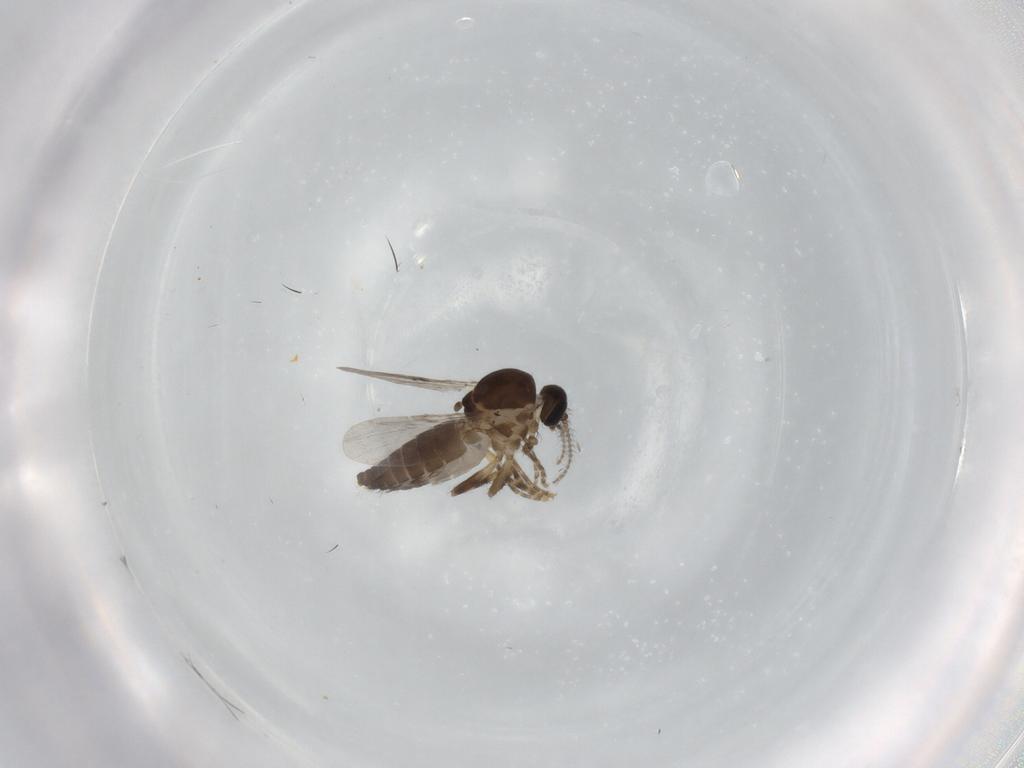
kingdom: Animalia
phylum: Arthropoda
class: Insecta
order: Diptera
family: Ceratopogonidae
